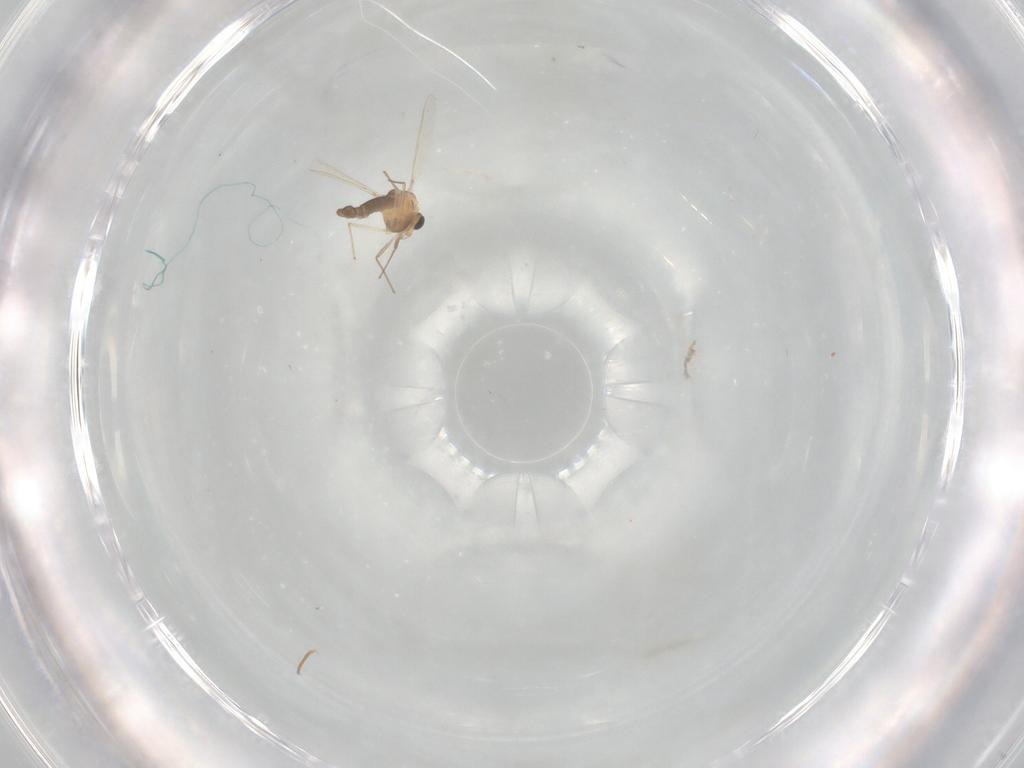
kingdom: Animalia
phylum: Arthropoda
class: Insecta
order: Diptera
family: Chironomidae
